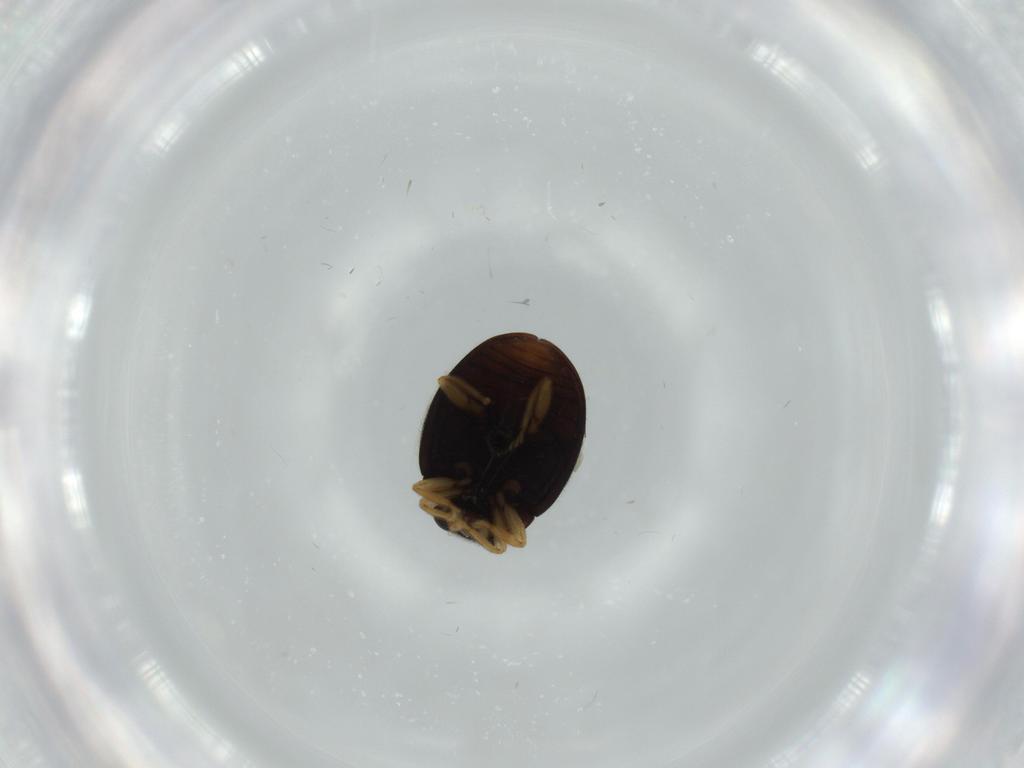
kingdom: Animalia
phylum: Arthropoda
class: Insecta
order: Coleoptera
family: Coccinellidae
